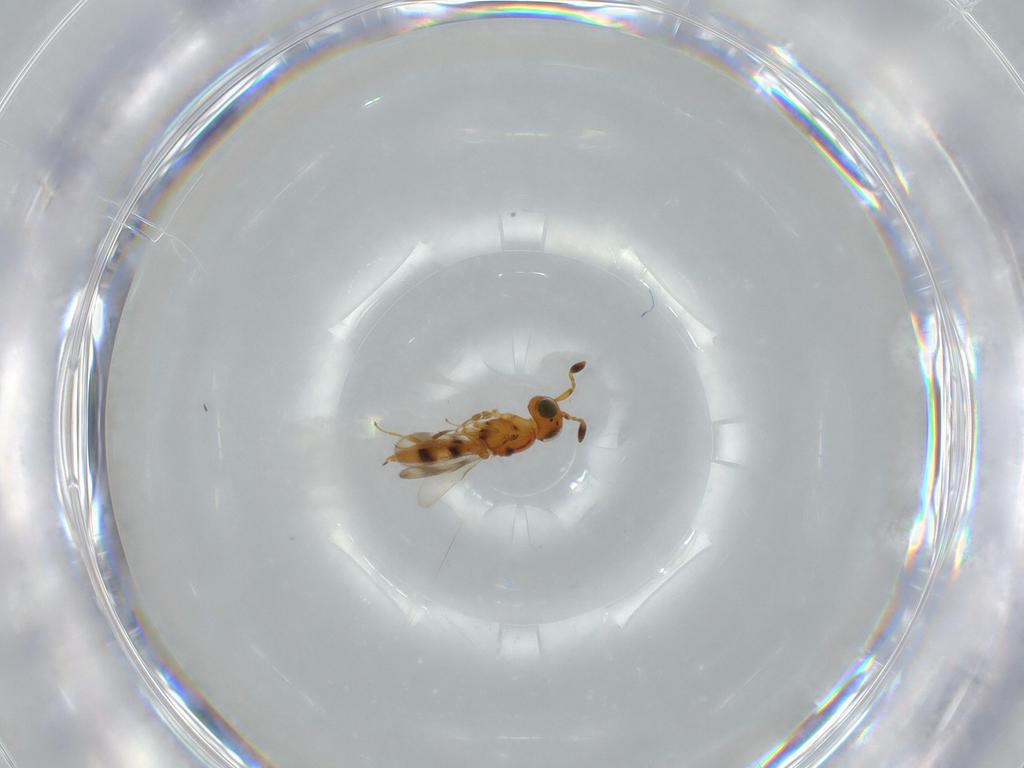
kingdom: Animalia
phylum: Arthropoda
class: Insecta
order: Hymenoptera
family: Scelionidae
